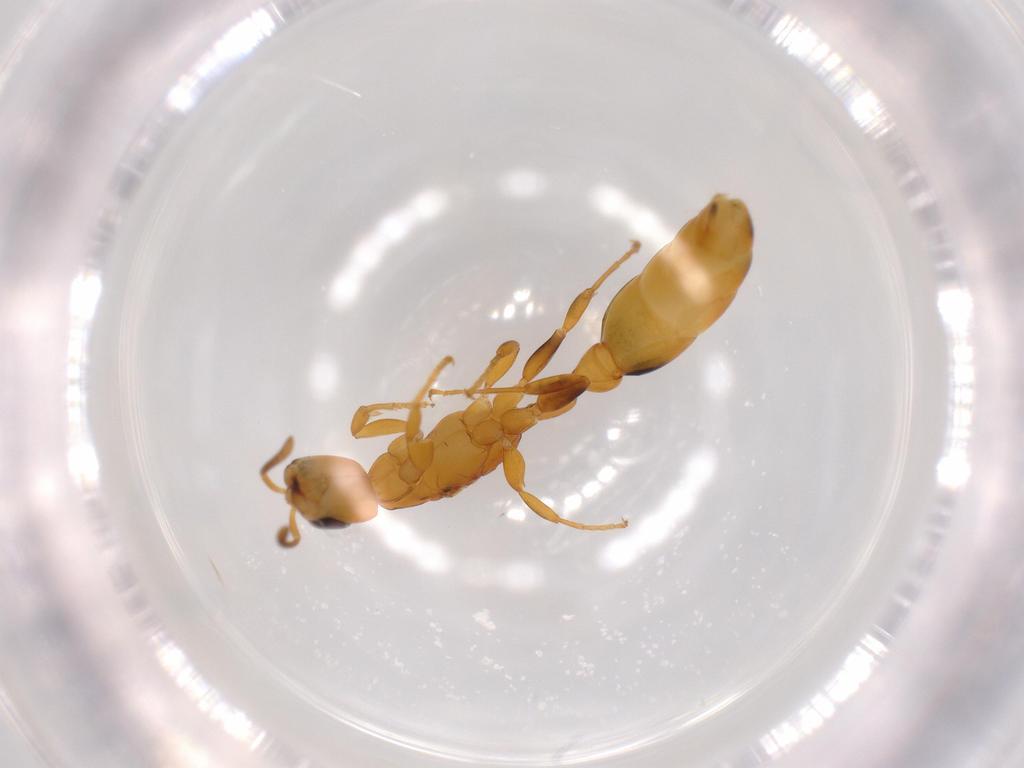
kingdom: Animalia
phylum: Arthropoda
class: Insecta
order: Hymenoptera
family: Formicidae
